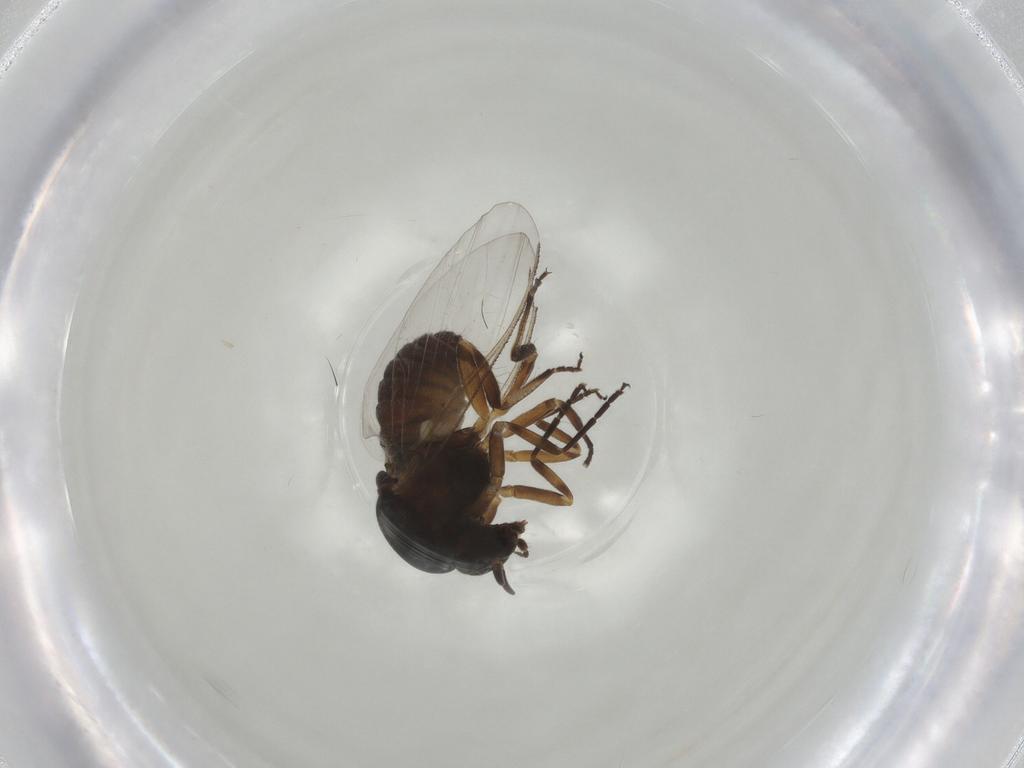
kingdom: Animalia
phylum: Arthropoda
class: Insecta
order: Diptera
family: Simuliidae
